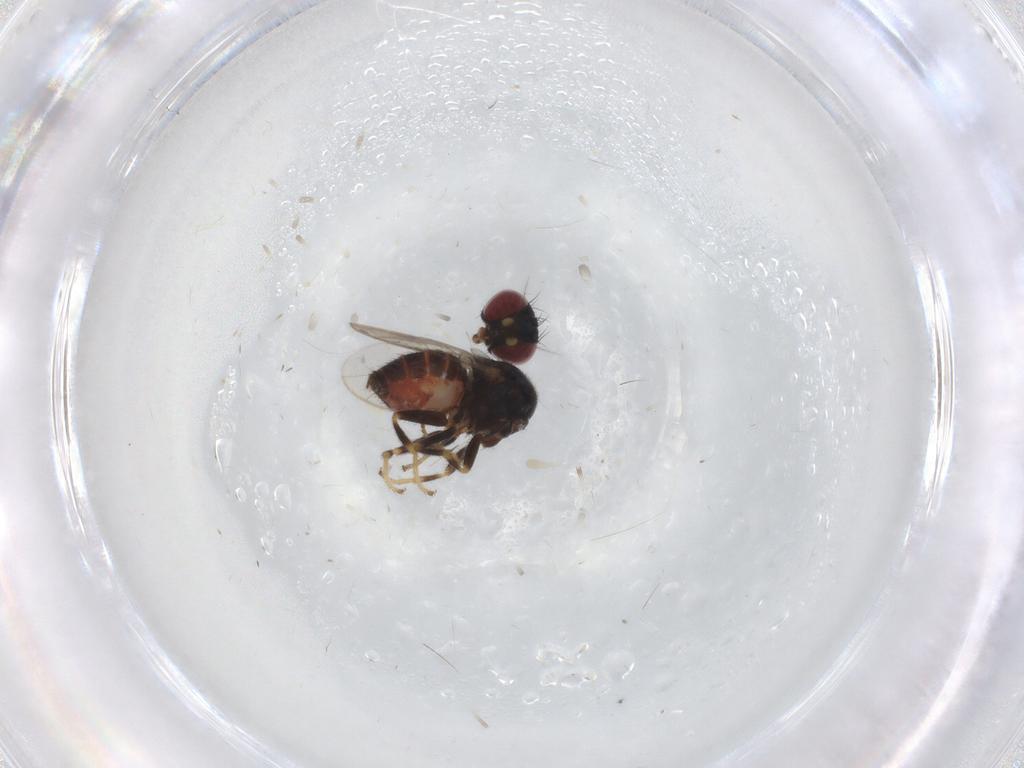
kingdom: Animalia
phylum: Arthropoda
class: Insecta
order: Diptera
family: Chloropidae
